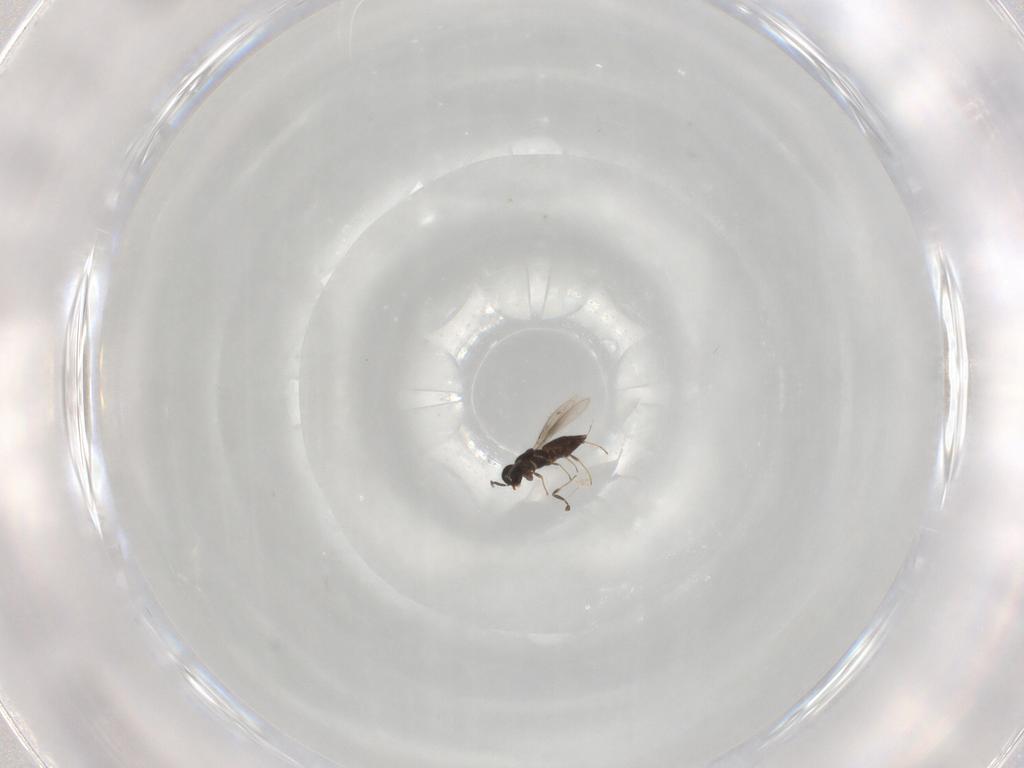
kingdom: Animalia
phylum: Arthropoda
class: Insecta
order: Hymenoptera
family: Scelionidae
